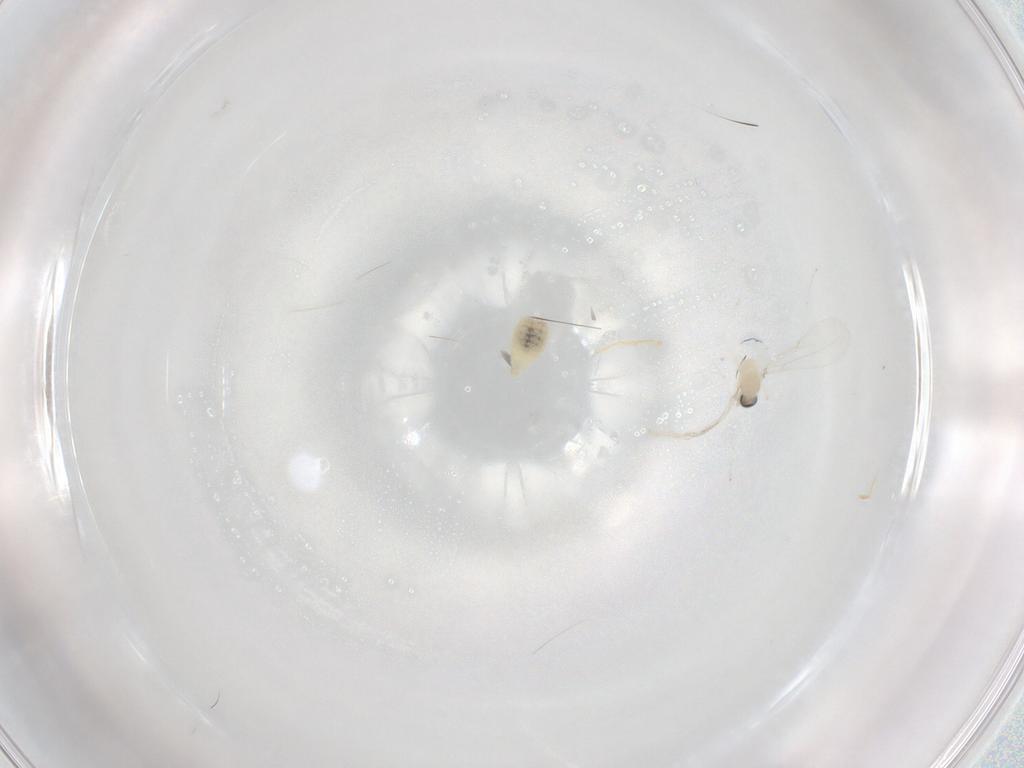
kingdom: Animalia
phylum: Arthropoda
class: Insecta
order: Diptera
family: Cecidomyiidae
